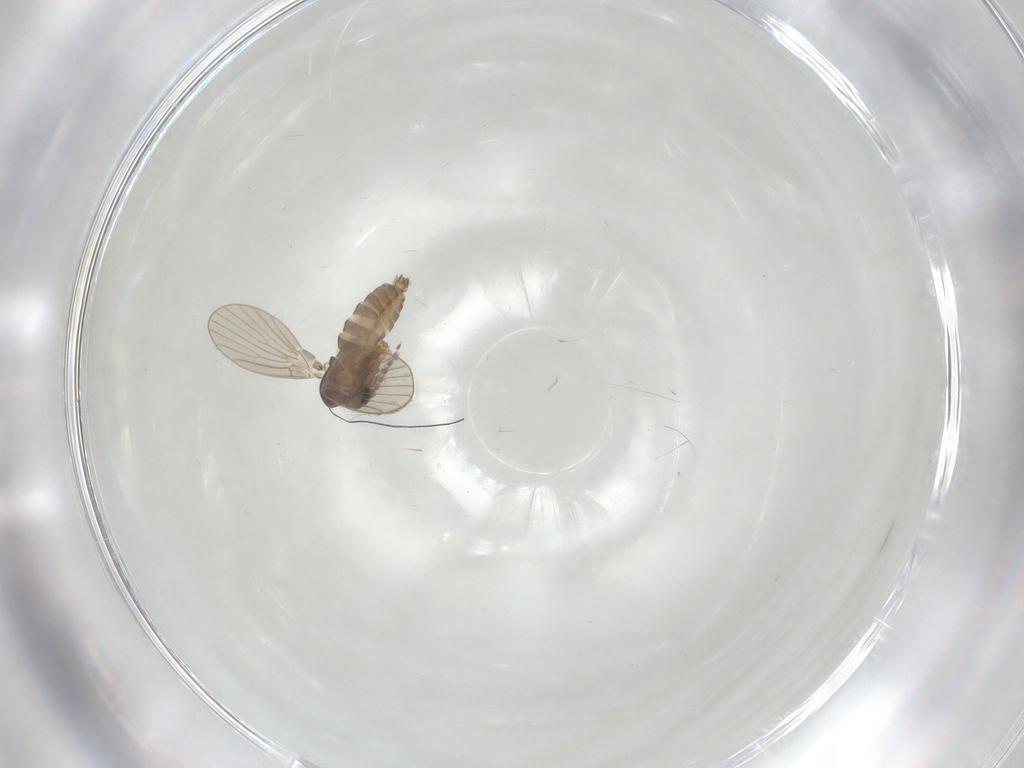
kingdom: Animalia
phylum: Arthropoda
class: Insecta
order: Diptera
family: Psychodidae
